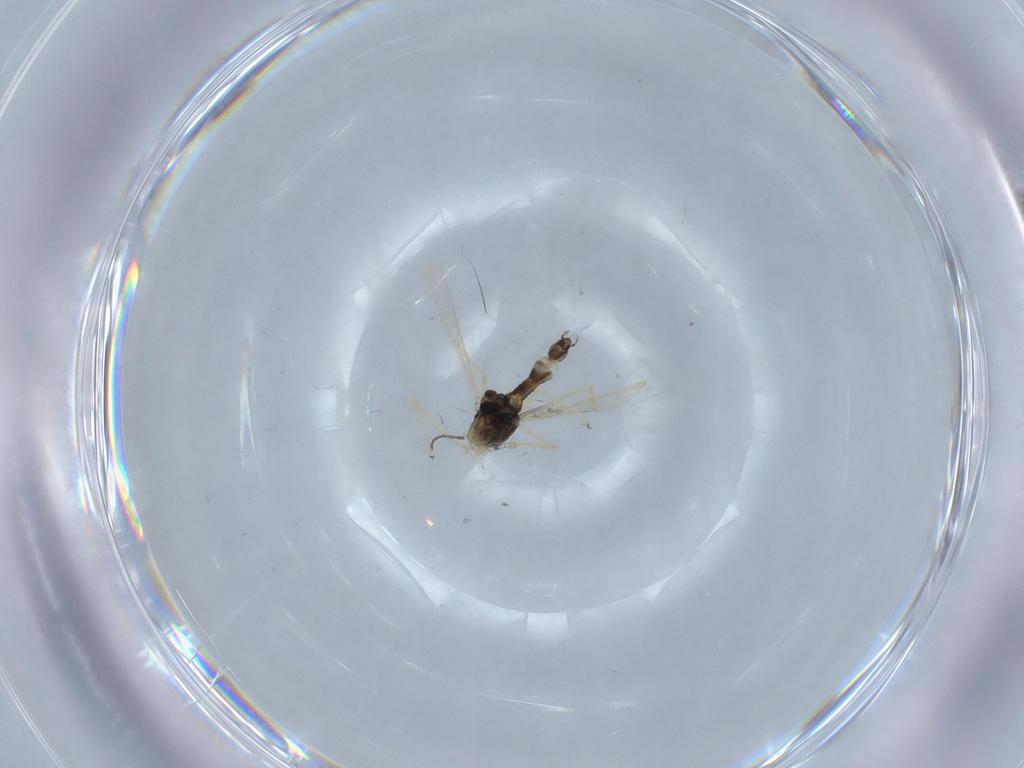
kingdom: Animalia
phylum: Arthropoda
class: Insecta
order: Diptera
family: Chironomidae
